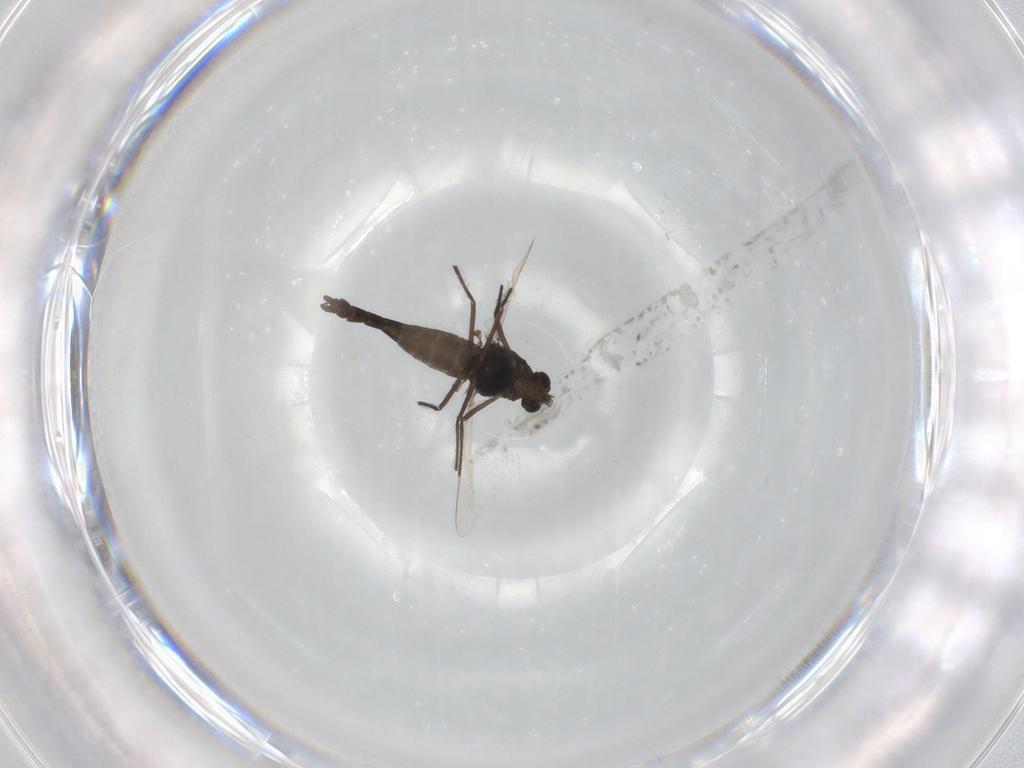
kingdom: Animalia
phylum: Arthropoda
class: Insecta
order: Diptera
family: Chironomidae
